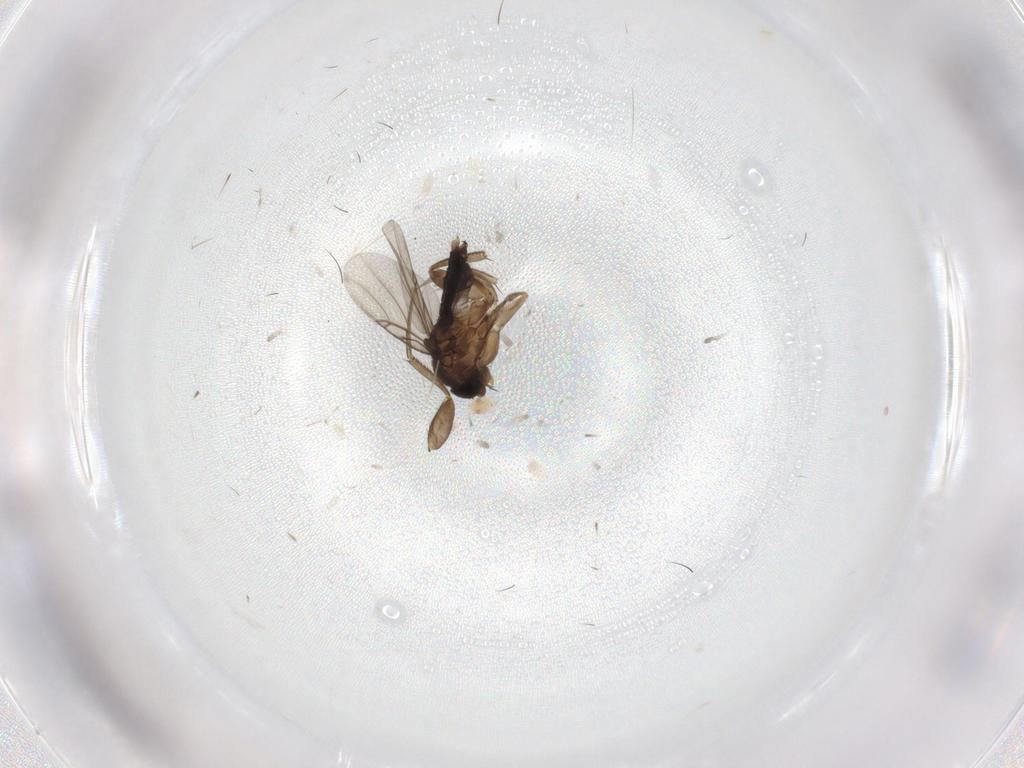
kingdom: Animalia
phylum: Arthropoda
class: Insecta
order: Diptera
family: Phoridae
